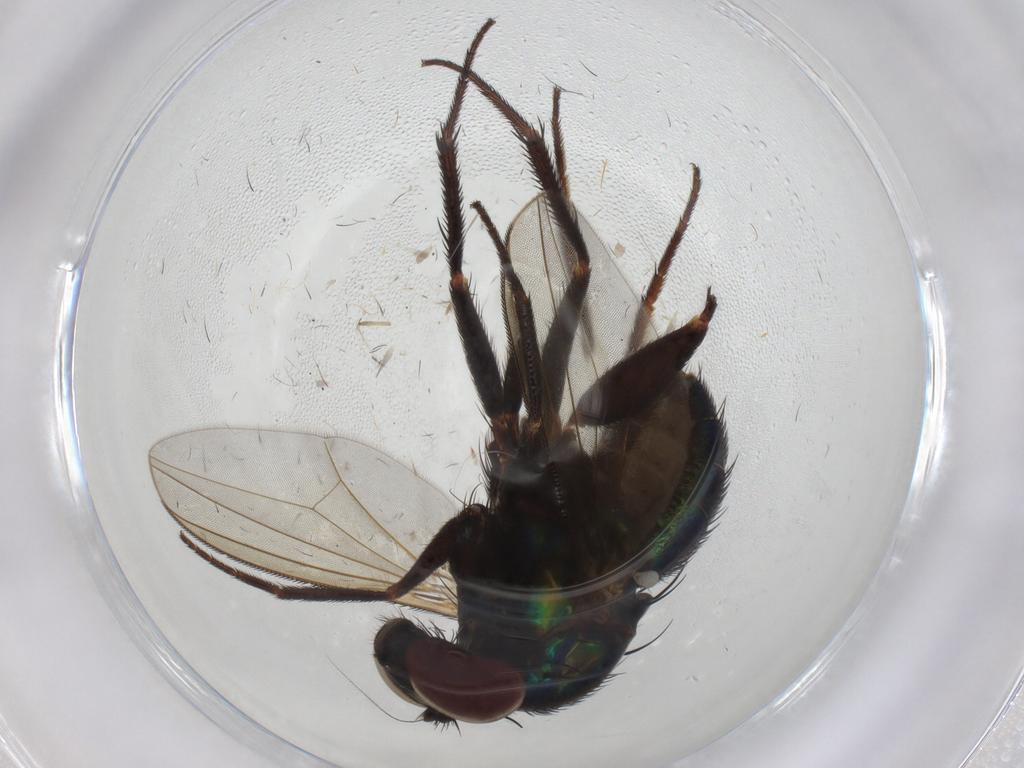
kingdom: Animalia
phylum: Arthropoda
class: Insecta
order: Diptera
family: Dolichopodidae
